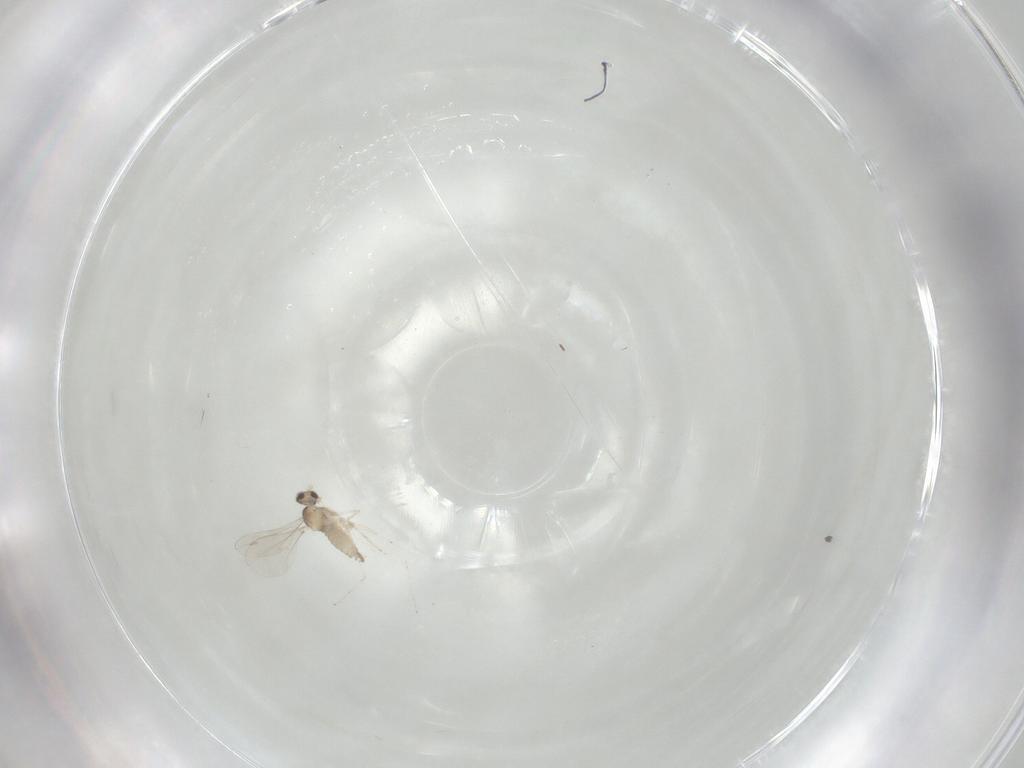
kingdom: Animalia
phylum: Arthropoda
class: Insecta
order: Diptera
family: Cecidomyiidae
